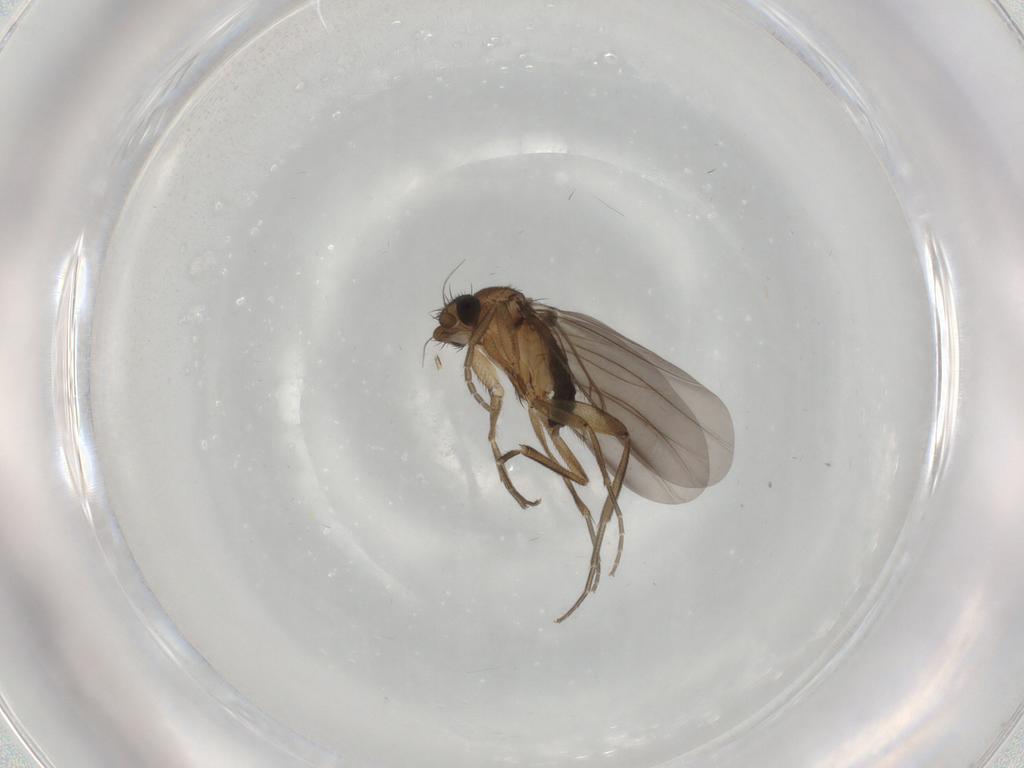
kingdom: Animalia
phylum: Arthropoda
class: Insecta
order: Diptera
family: Phoridae
